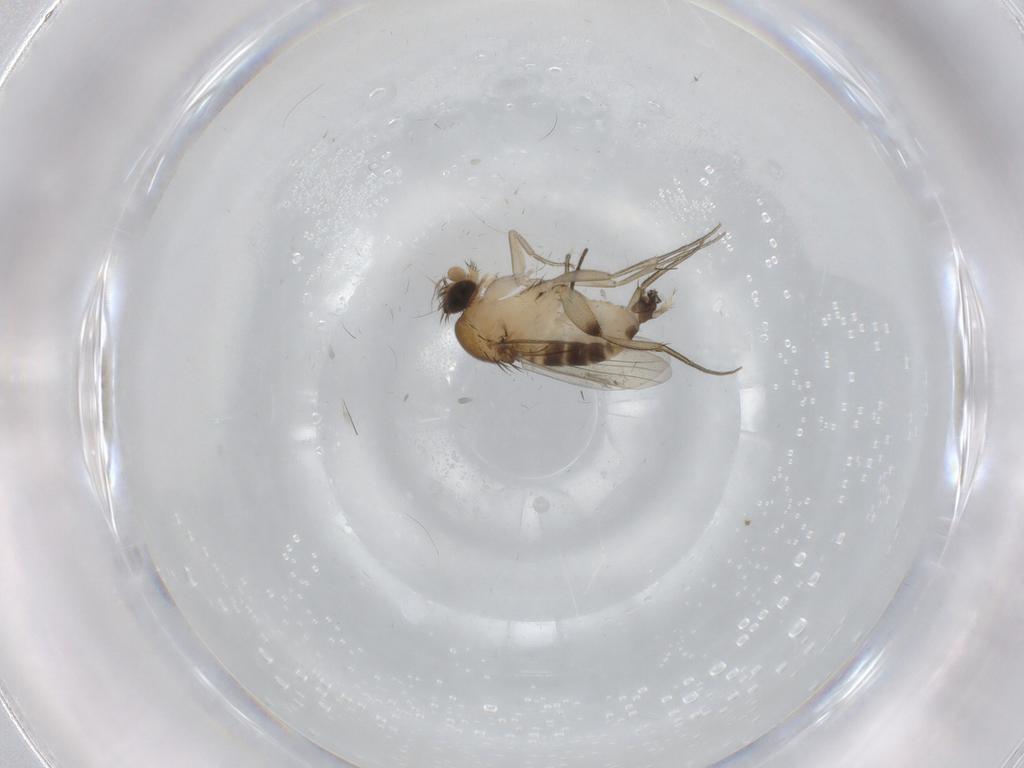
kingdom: Animalia
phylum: Arthropoda
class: Insecta
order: Diptera
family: Phoridae
